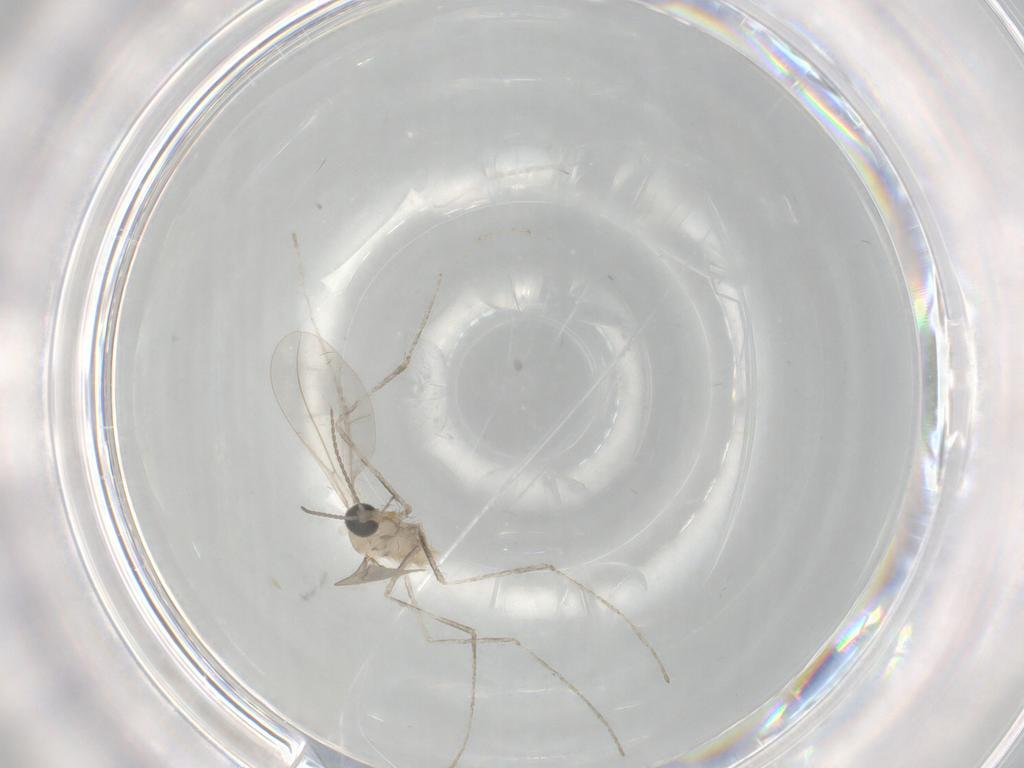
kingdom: Animalia
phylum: Arthropoda
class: Insecta
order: Diptera
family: Cecidomyiidae
